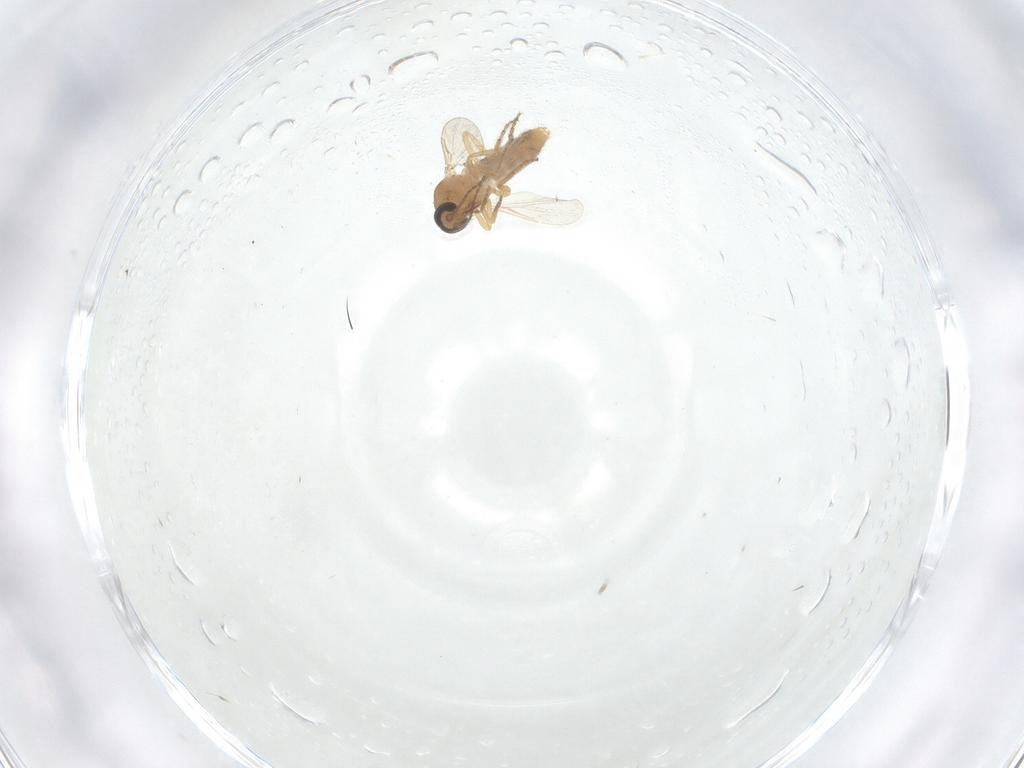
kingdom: Animalia
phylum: Arthropoda
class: Insecta
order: Diptera
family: Ceratopogonidae
